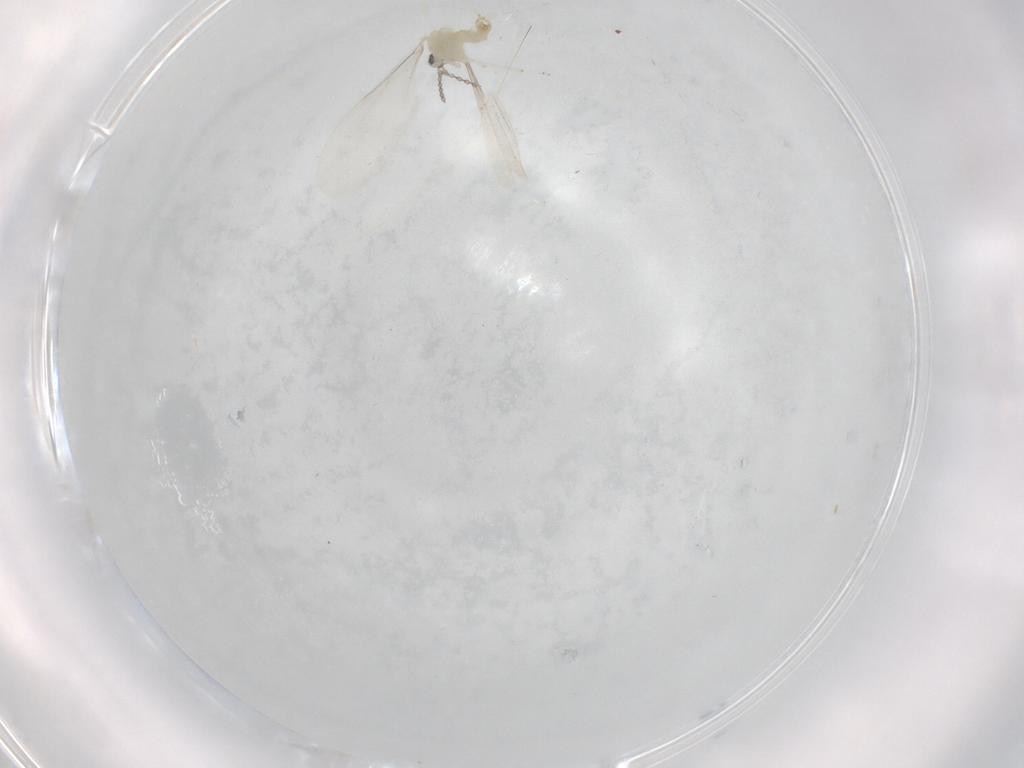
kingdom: Animalia
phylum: Arthropoda
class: Insecta
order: Diptera
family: Cecidomyiidae
